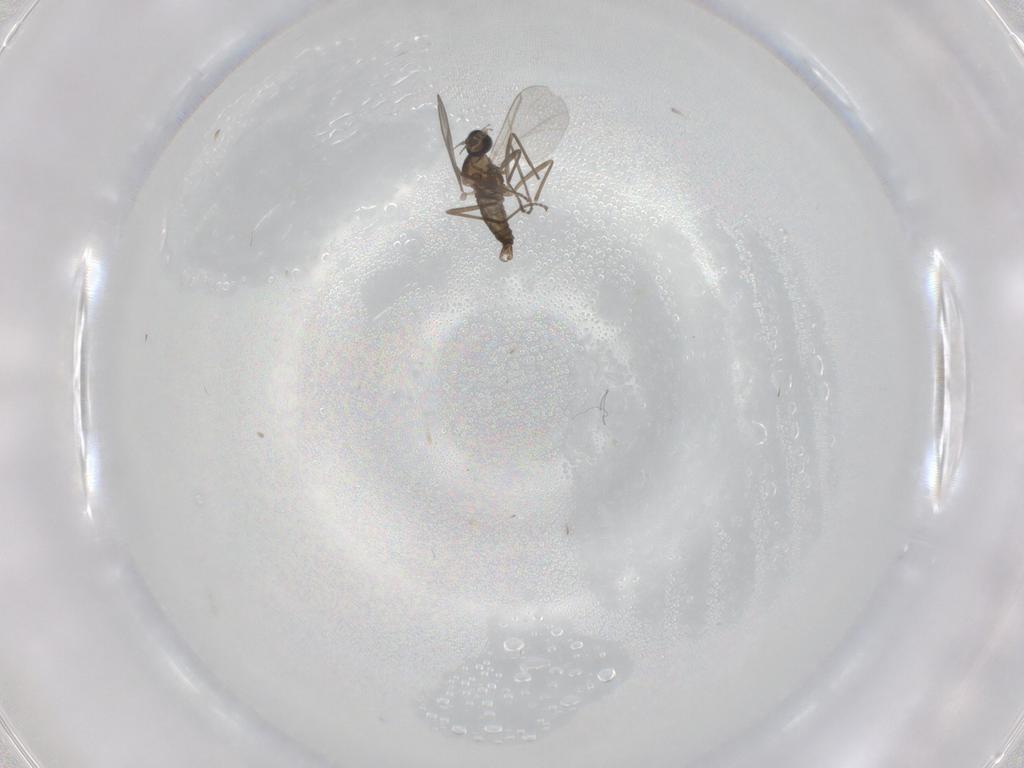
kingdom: Animalia
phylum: Arthropoda
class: Insecta
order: Diptera
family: Cecidomyiidae
